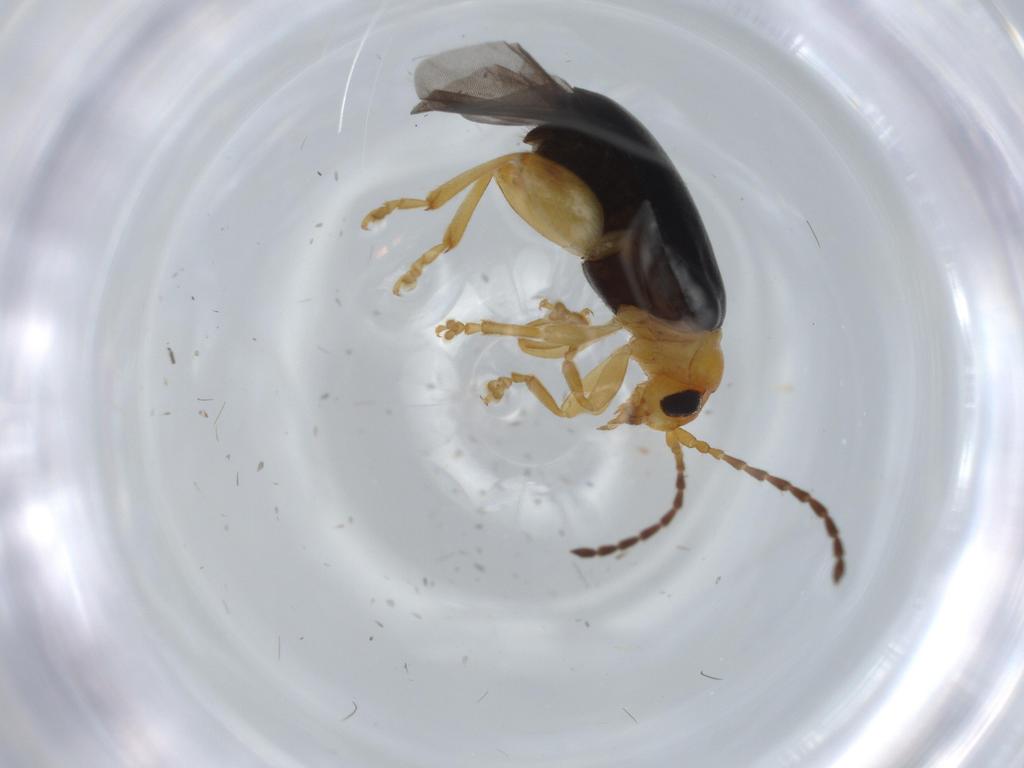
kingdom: Animalia
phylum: Arthropoda
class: Insecta
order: Coleoptera
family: Chrysomelidae
